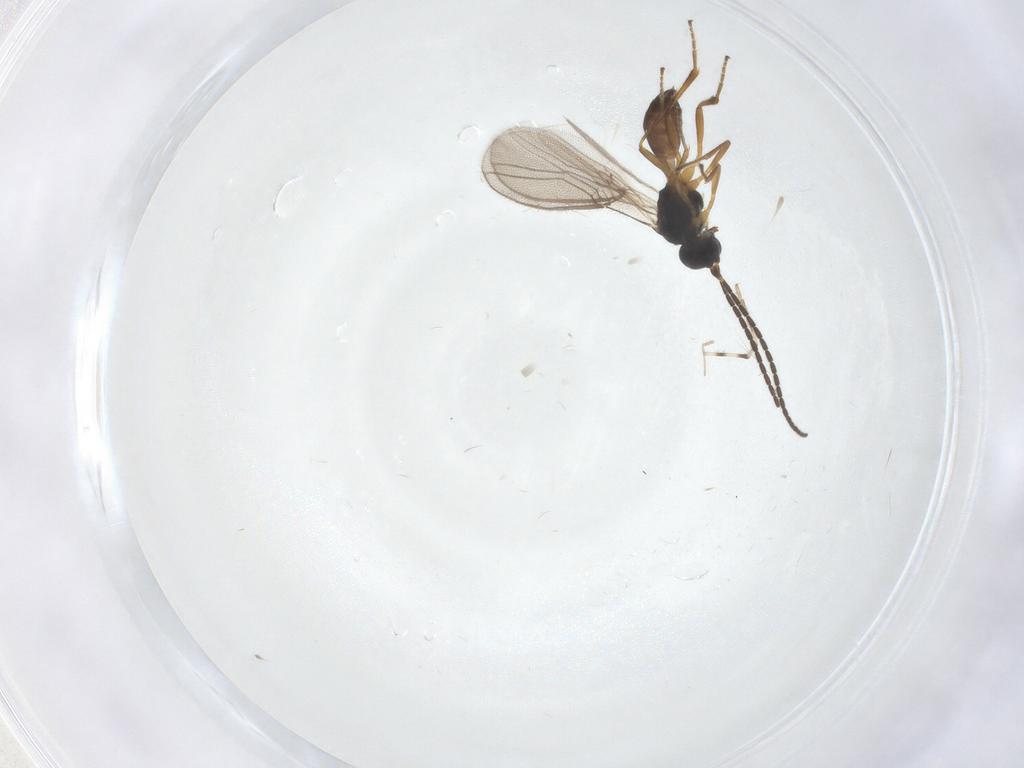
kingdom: Animalia
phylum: Arthropoda
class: Insecta
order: Hymenoptera
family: Braconidae
